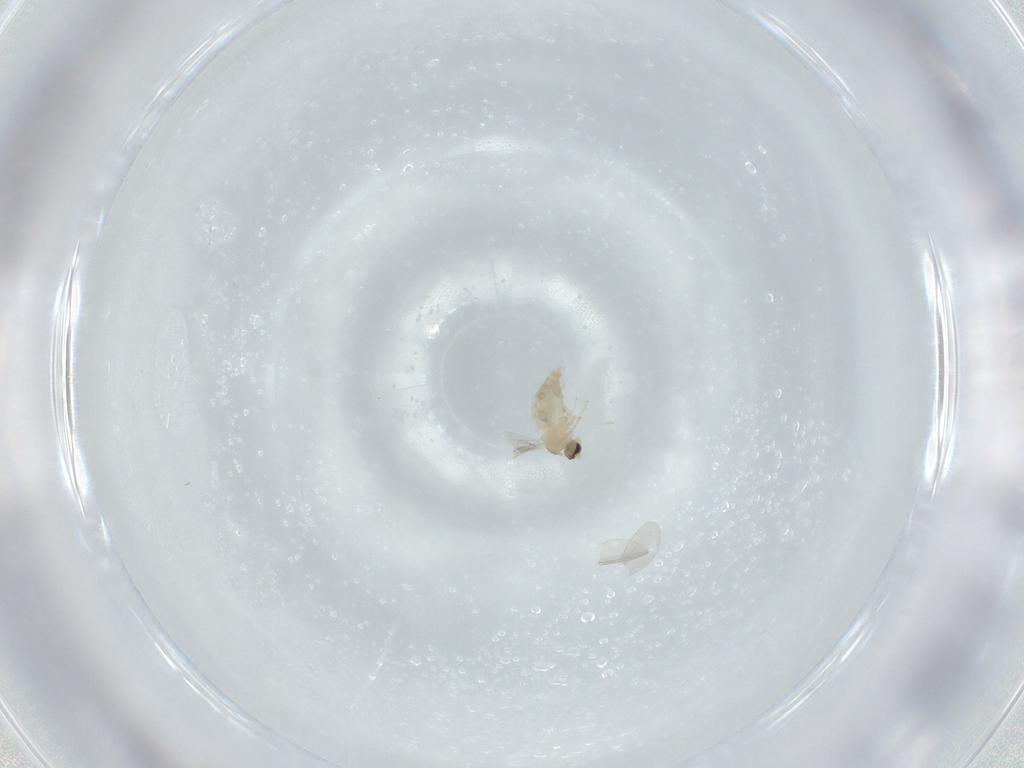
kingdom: Animalia
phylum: Arthropoda
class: Insecta
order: Diptera
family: Cecidomyiidae
